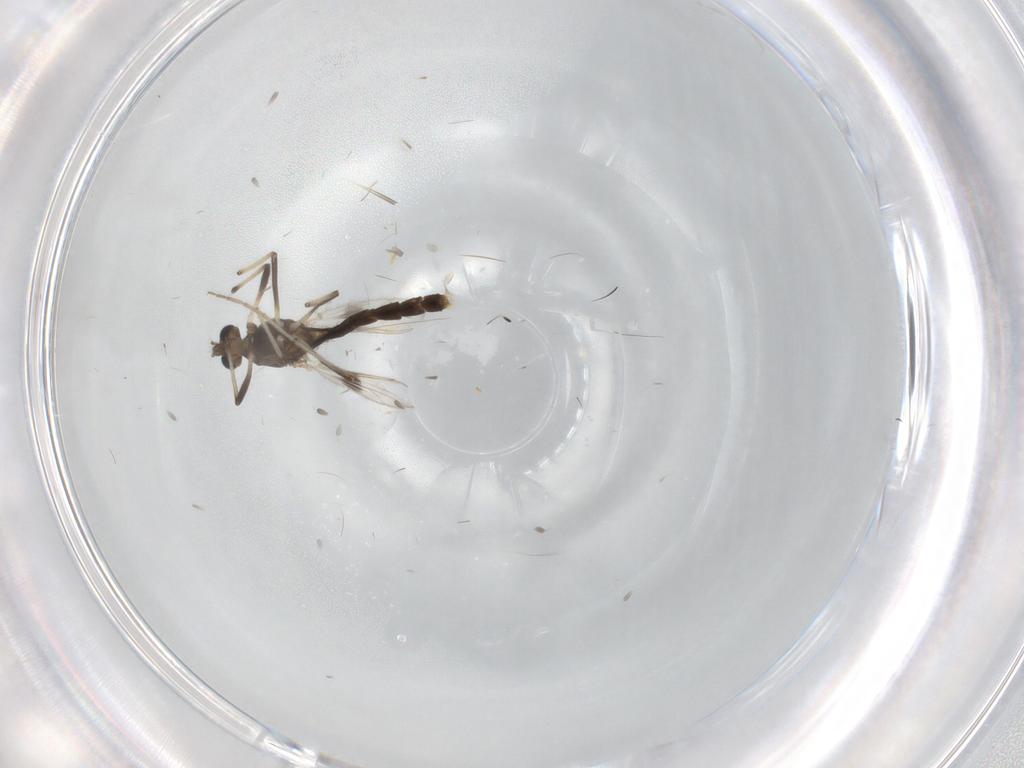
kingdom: Animalia
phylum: Arthropoda
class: Insecta
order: Diptera
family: Chironomidae
